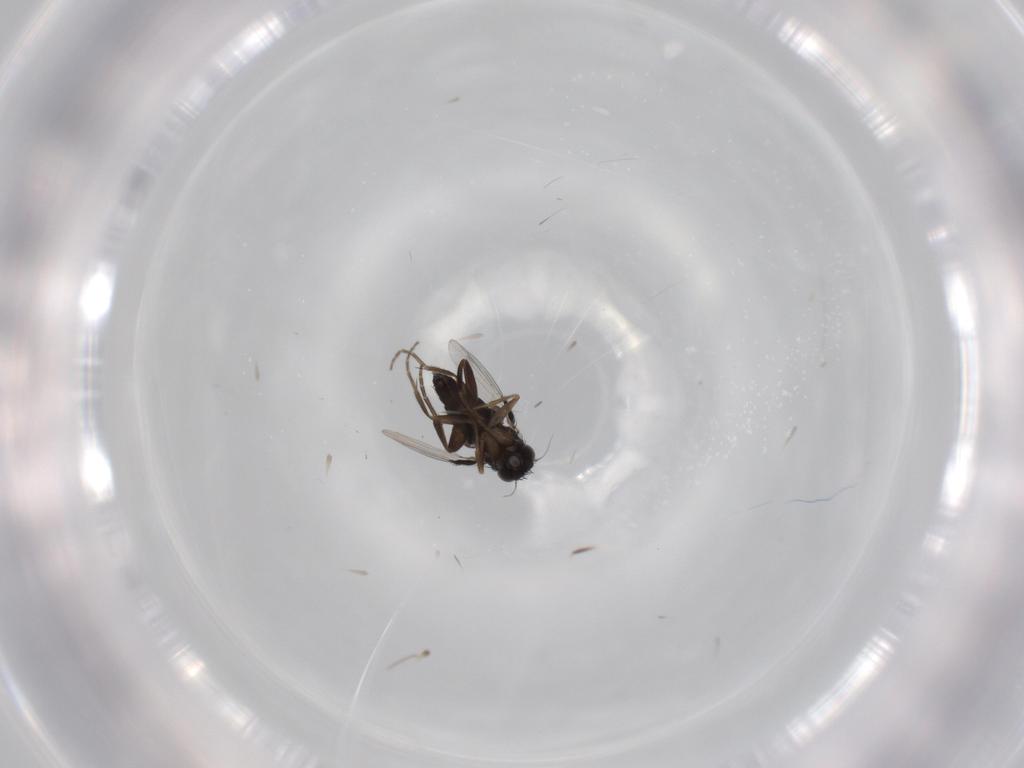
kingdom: Animalia
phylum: Arthropoda
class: Insecta
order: Diptera
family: Phoridae
